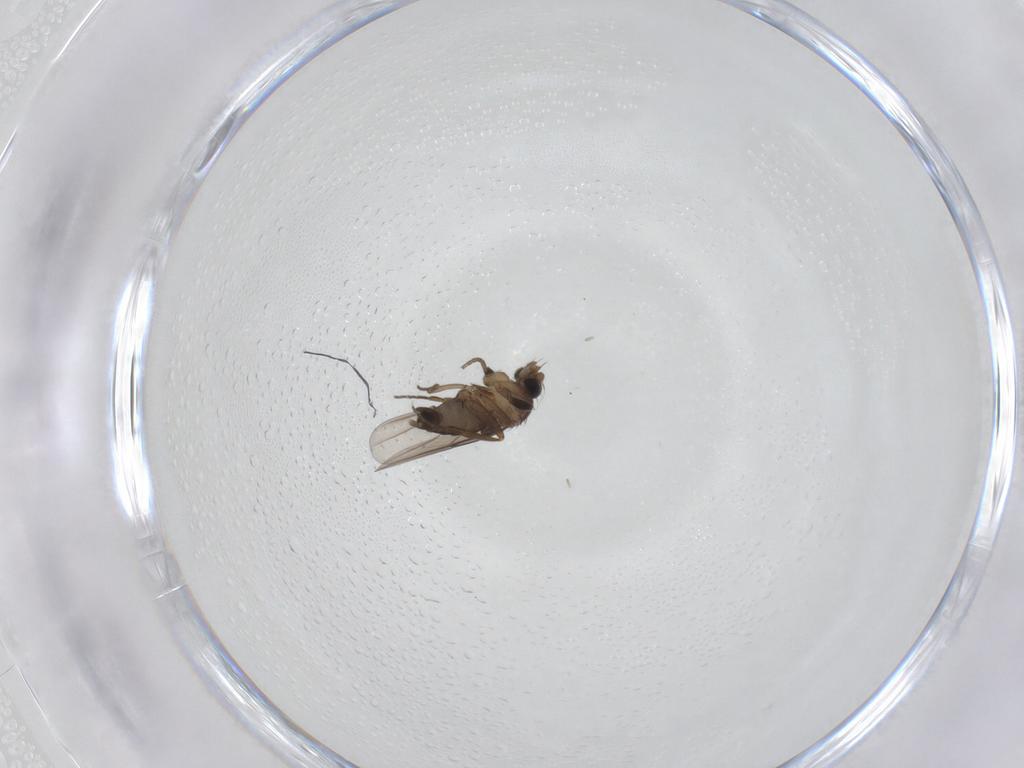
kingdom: Animalia
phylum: Arthropoda
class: Insecta
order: Diptera
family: Phoridae
